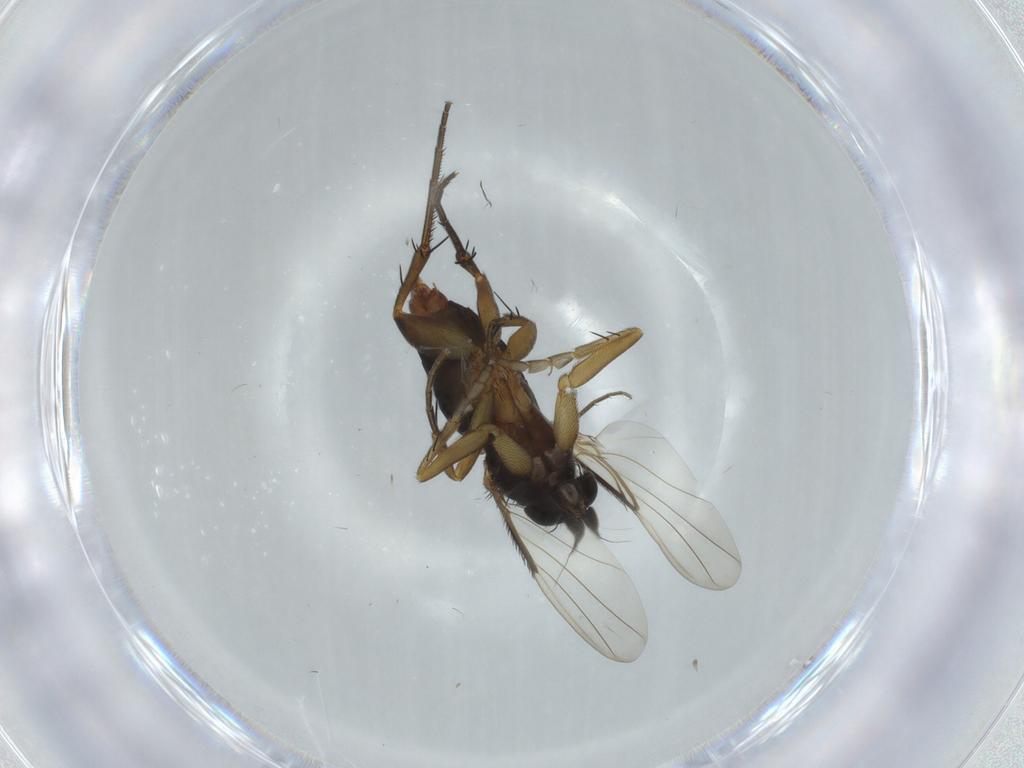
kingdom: Animalia
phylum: Arthropoda
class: Insecta
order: Diptera
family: Phoridae
